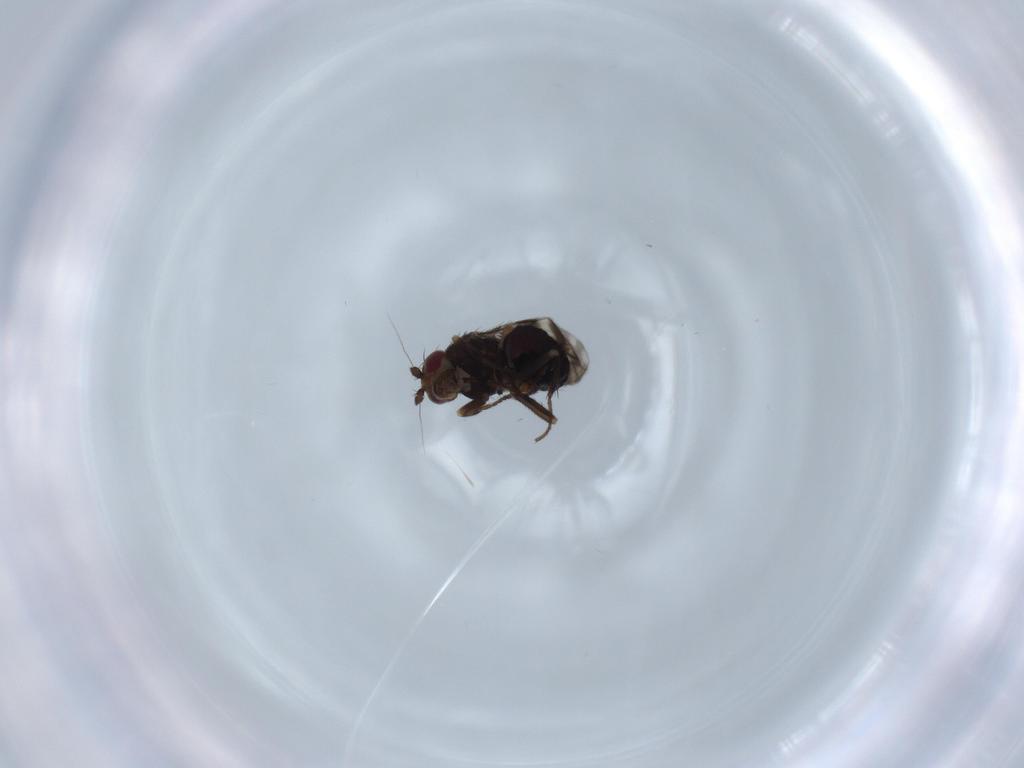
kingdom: Animalia
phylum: Arthropoda
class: Insecta
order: Diptera
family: Sphaeroceridae
